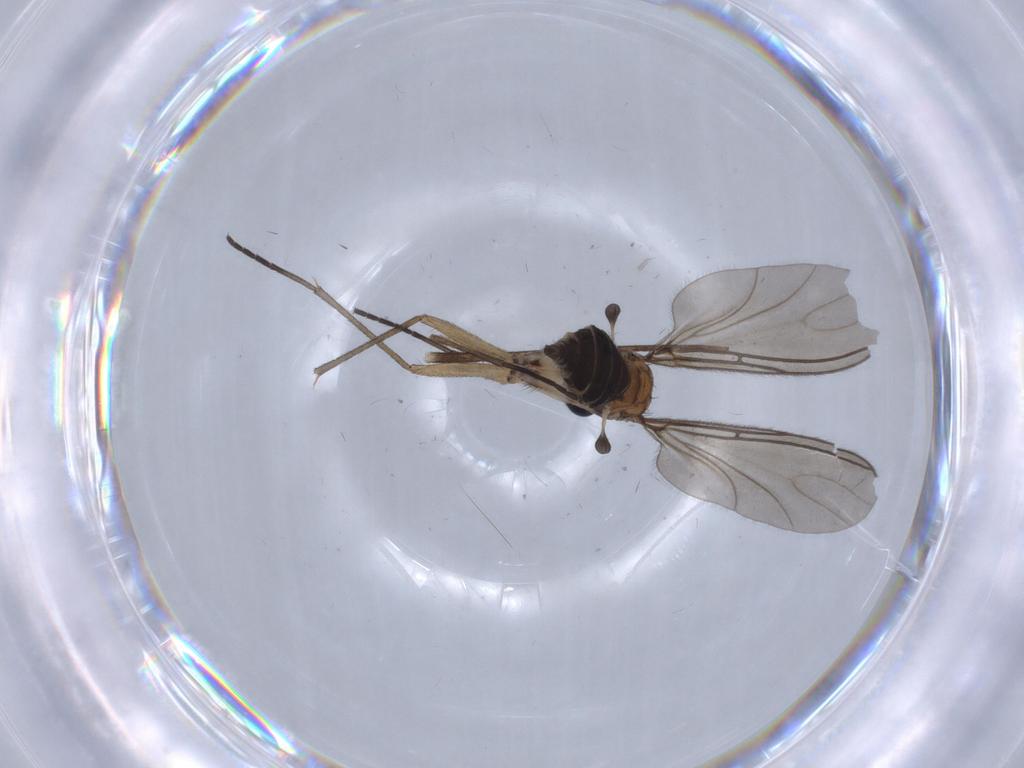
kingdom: Animalia
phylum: Arthropoda
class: Insecta
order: Diptera
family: Sciaridae
